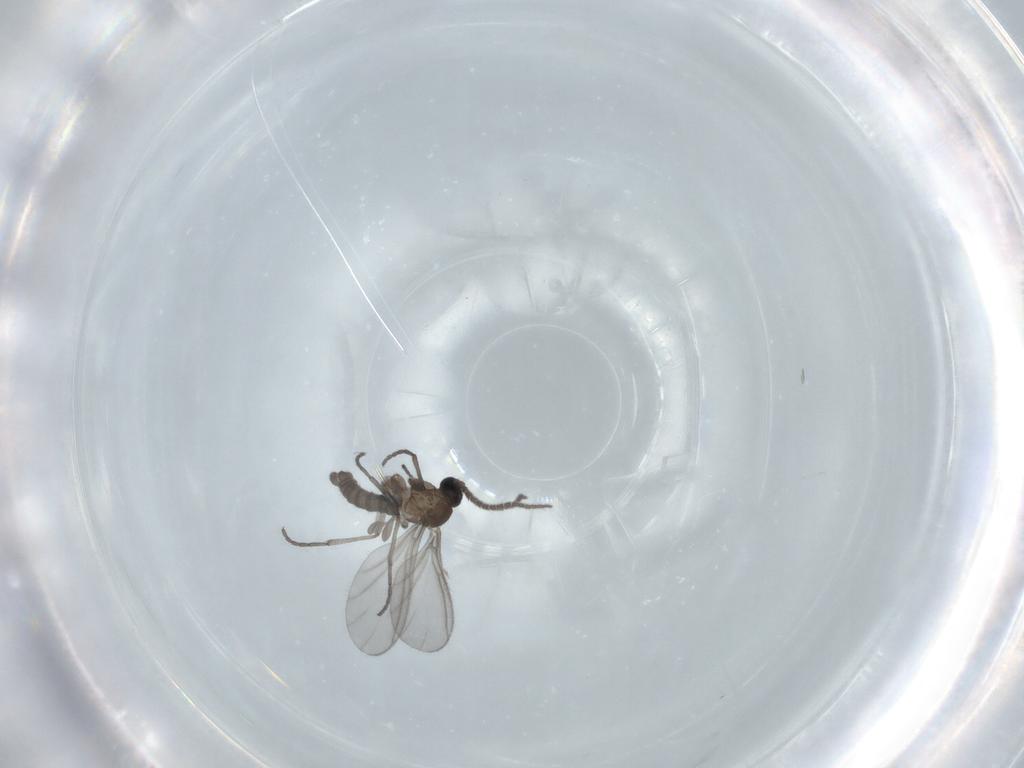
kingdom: Animalia
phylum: Arthropoda
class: Insecta
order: Diptera
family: Sciaridae
